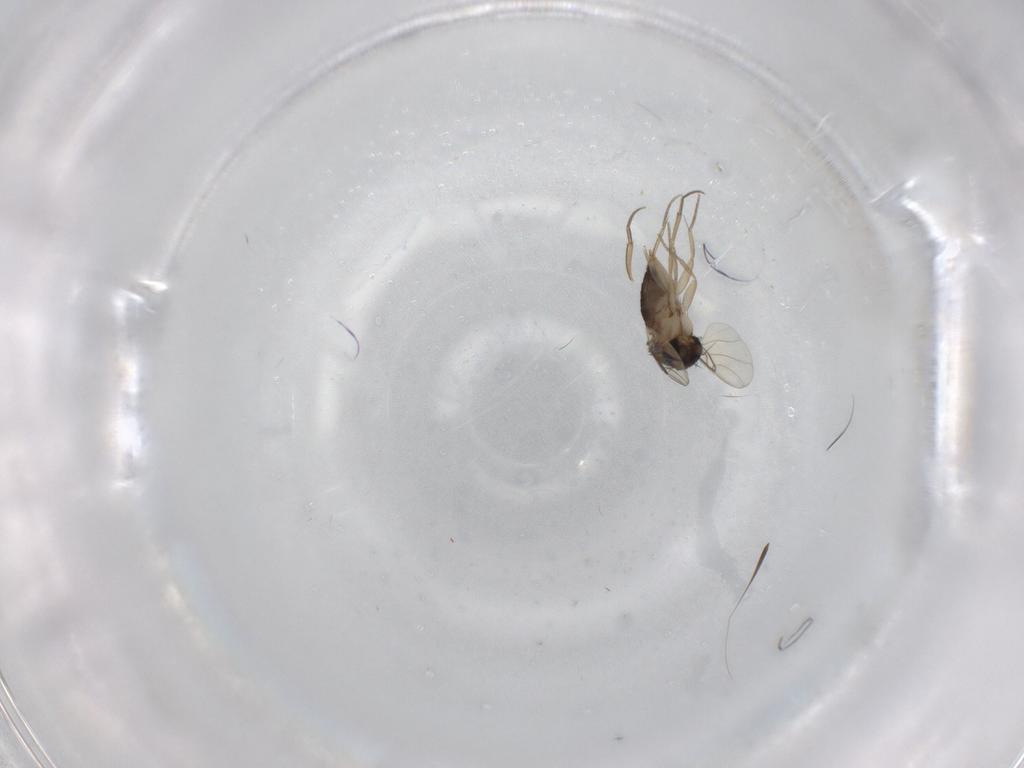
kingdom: Animalia
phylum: Arthropoda
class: Insecta
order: Diptera
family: Phoridae
